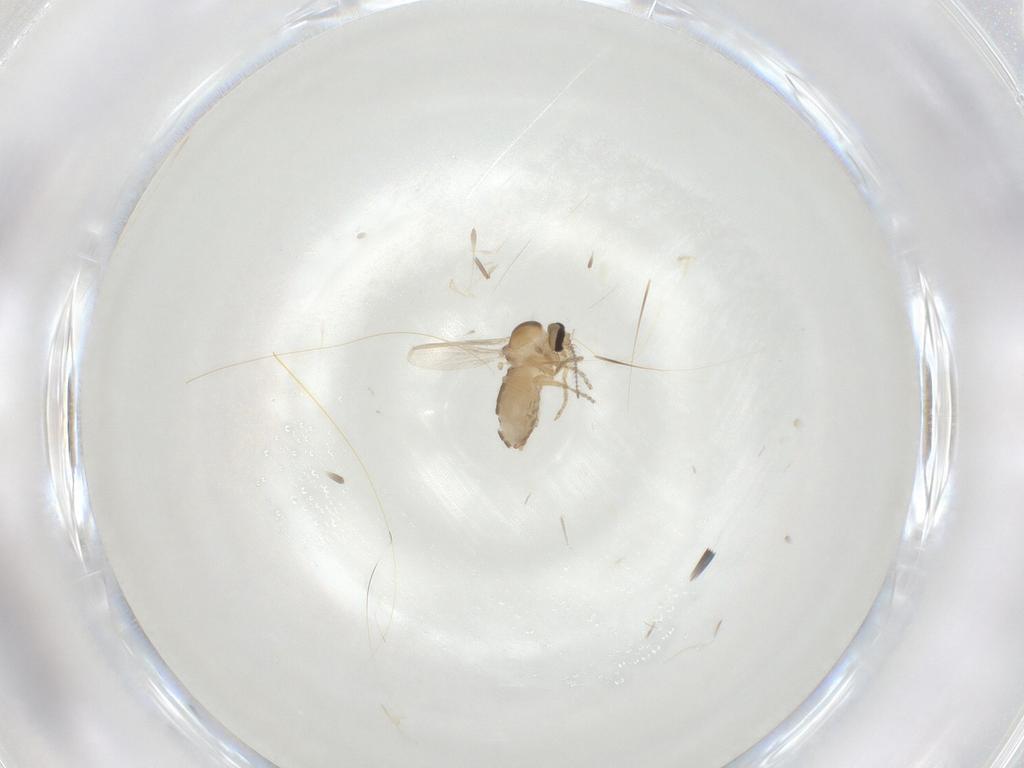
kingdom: Animalia
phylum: Arthropoda
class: Insecta
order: Diptera
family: Ceratopogonidae
